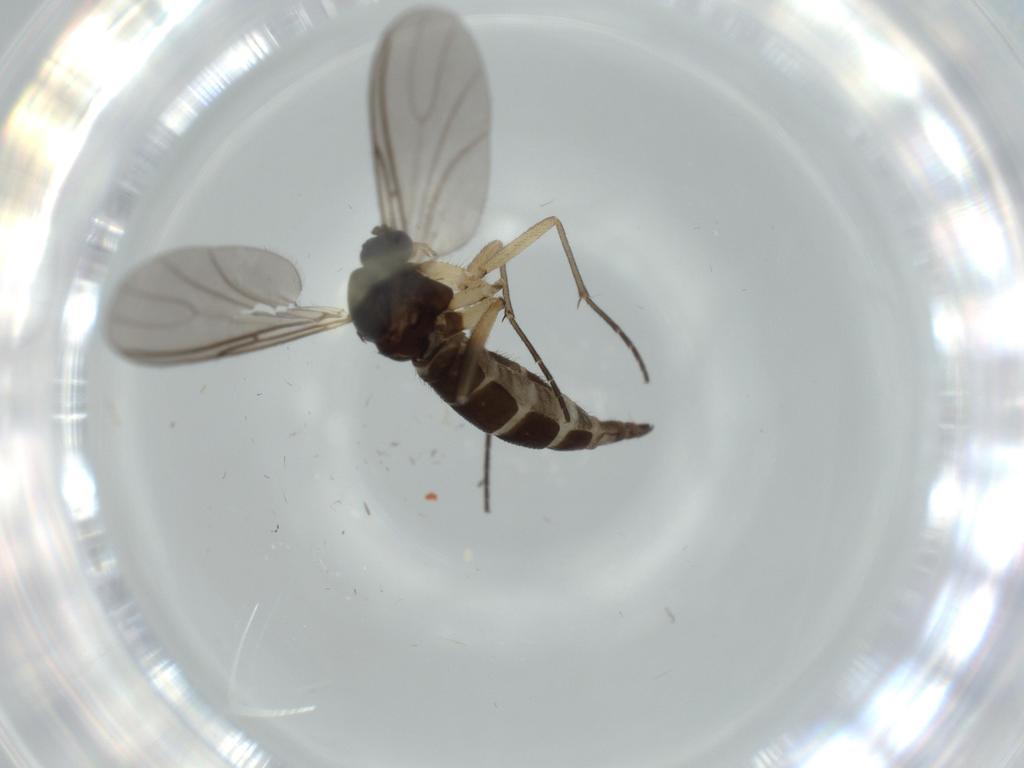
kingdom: Animalia
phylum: Arthropoda
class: Insecta
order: Diptera
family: Sciaridae
